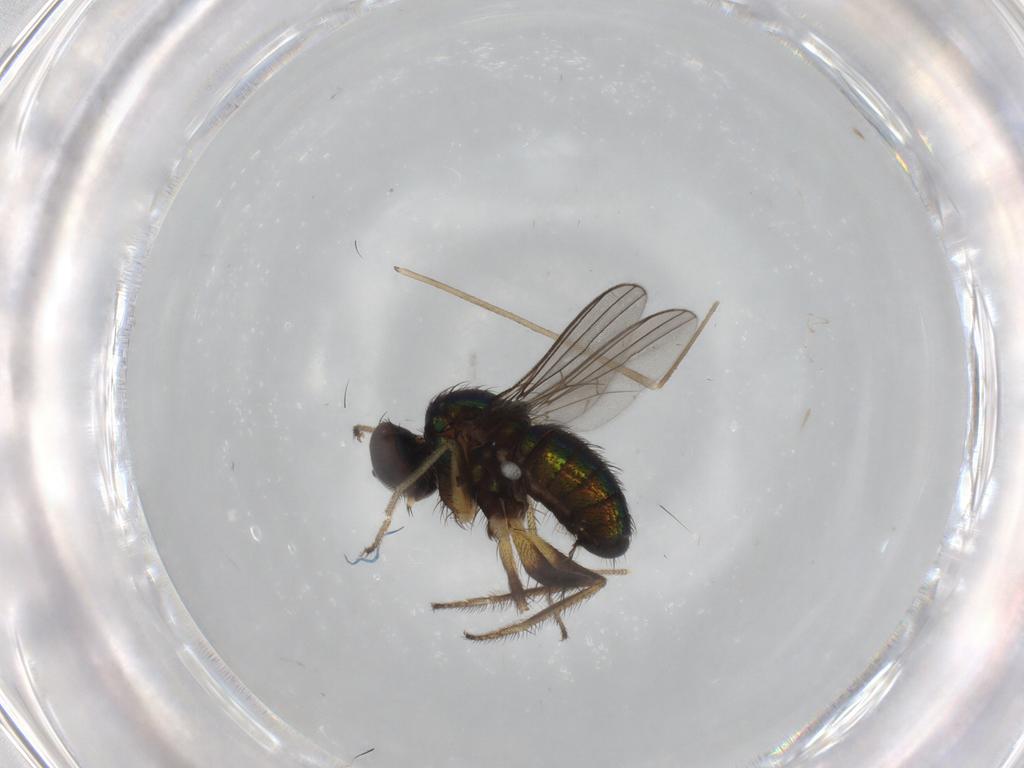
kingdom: Animalia
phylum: Arthropoda
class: Insecta
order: Diptera
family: Dolichopodidae
